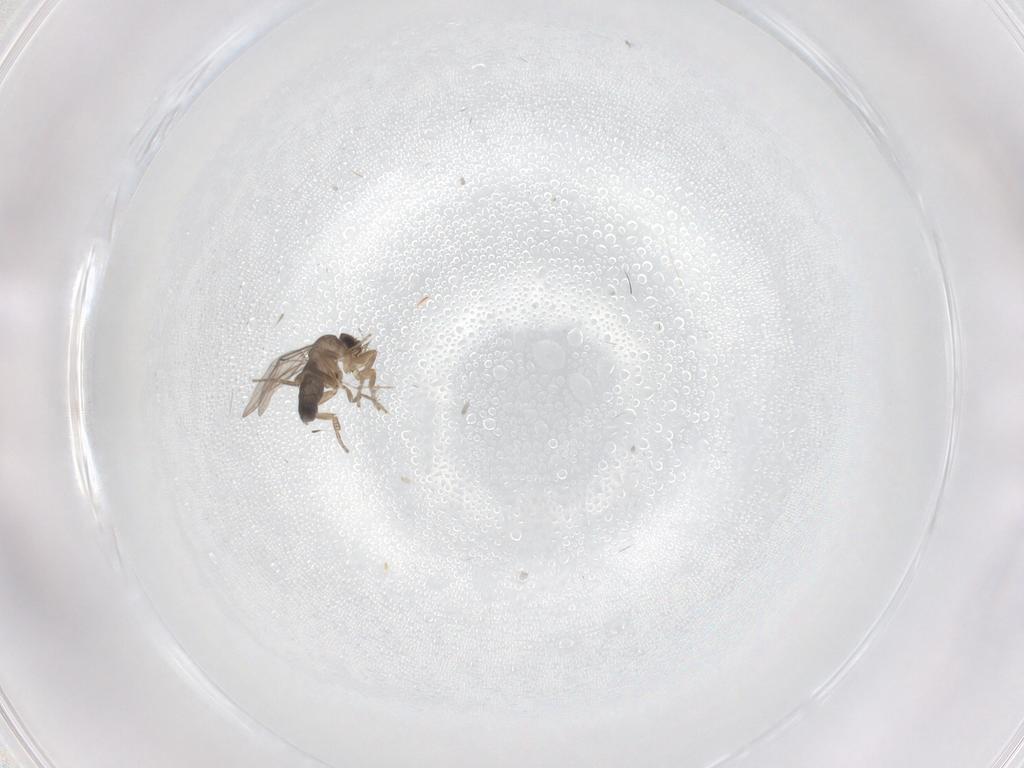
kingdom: Animalia
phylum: Arthropoda
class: Insecta
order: Diptera
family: Phoridae
